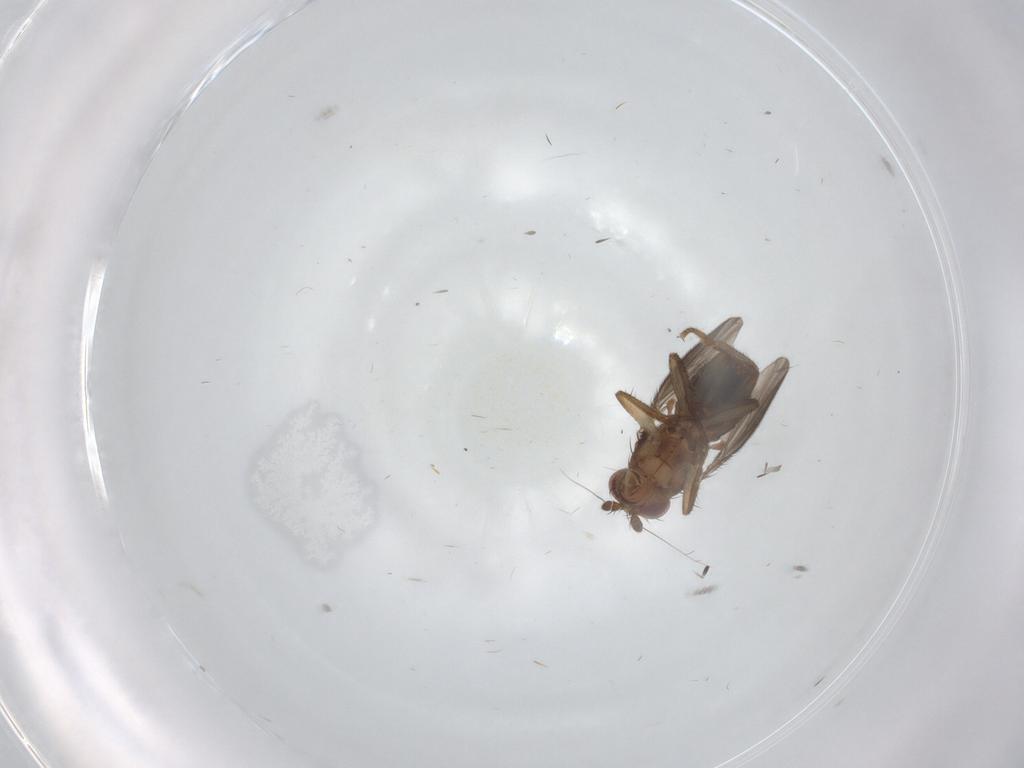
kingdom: Animalia
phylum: Arthropoda
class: Insecta
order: Diptera
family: Sphaeroceridae
